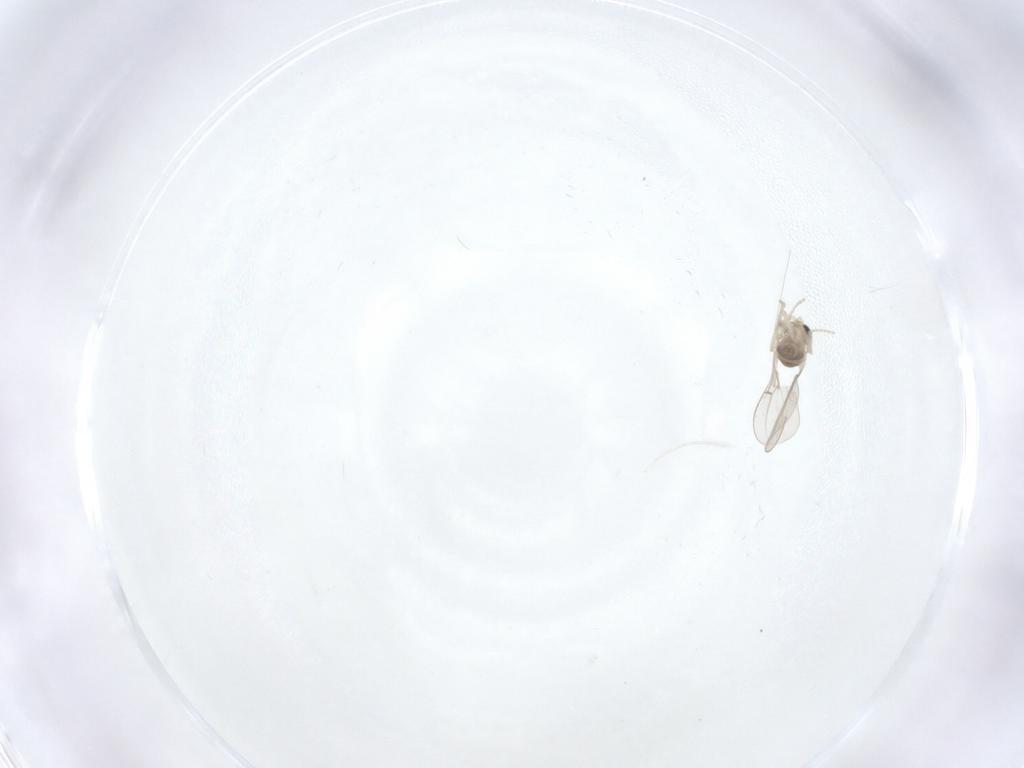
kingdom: Animalia
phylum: Arthropoda
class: Insecta
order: Diptera
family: Cecidomyiidae
